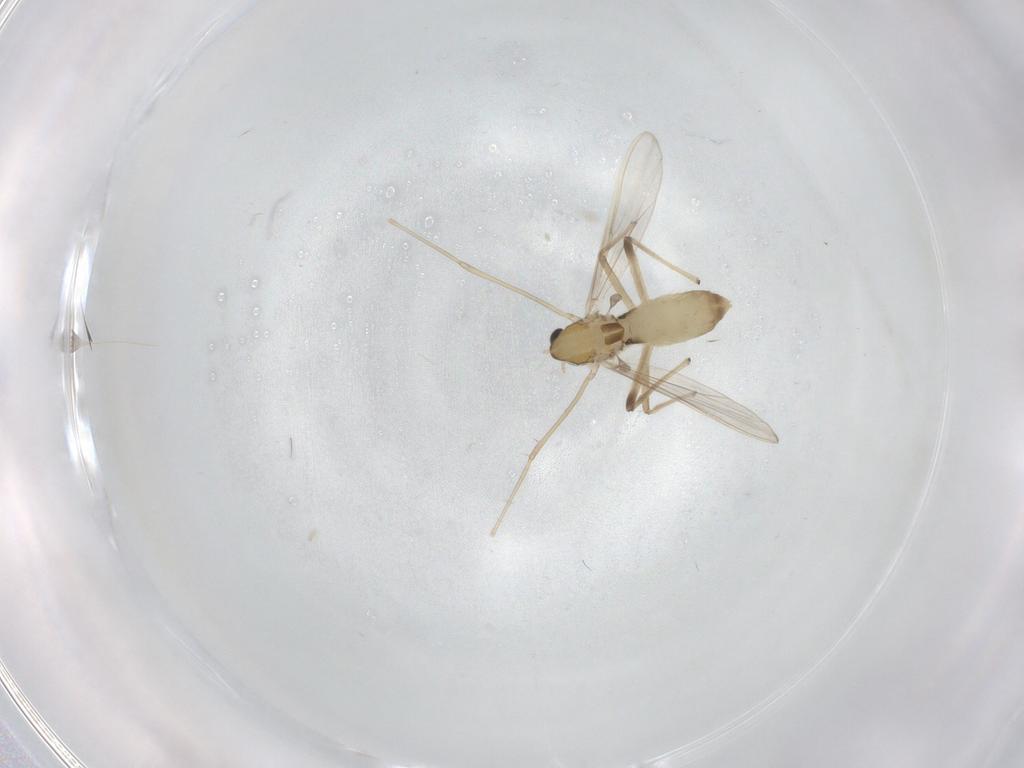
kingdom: Animalia
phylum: Arthropoda
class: Insecta
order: Diptera
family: Chironomidae
